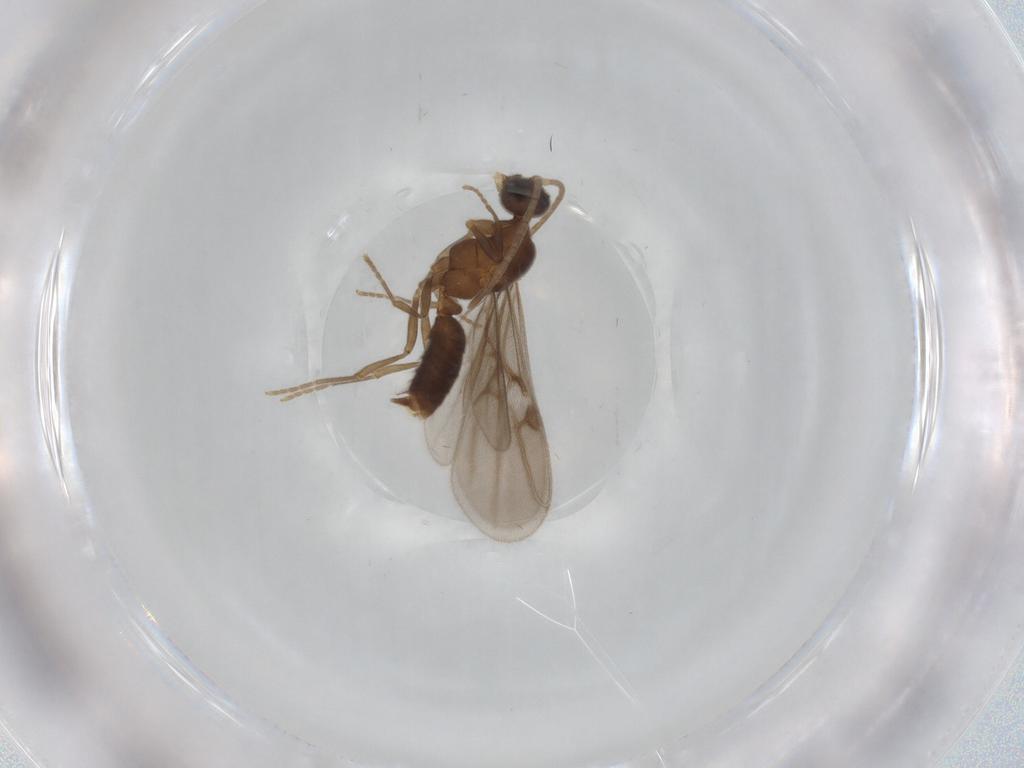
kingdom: Animalia
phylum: Arthropoda
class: Insecta
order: Hymenoptera
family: Formicidae
